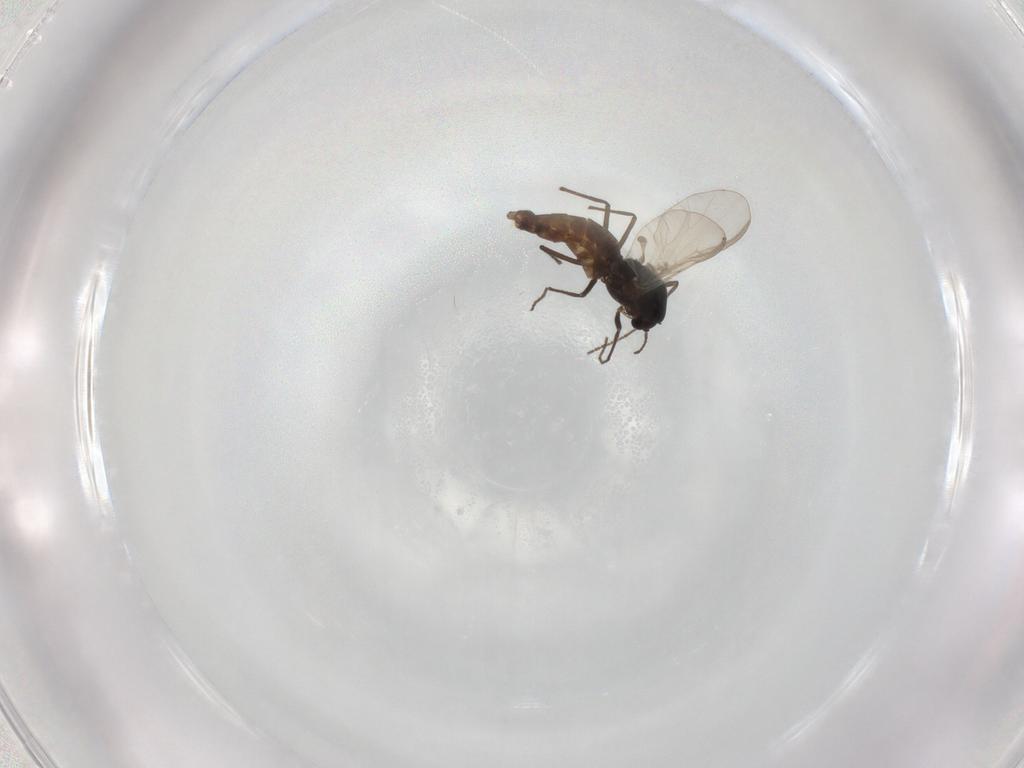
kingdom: Animalia
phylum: Arthropoda
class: Insecta
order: Diptera
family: Chironomidae
